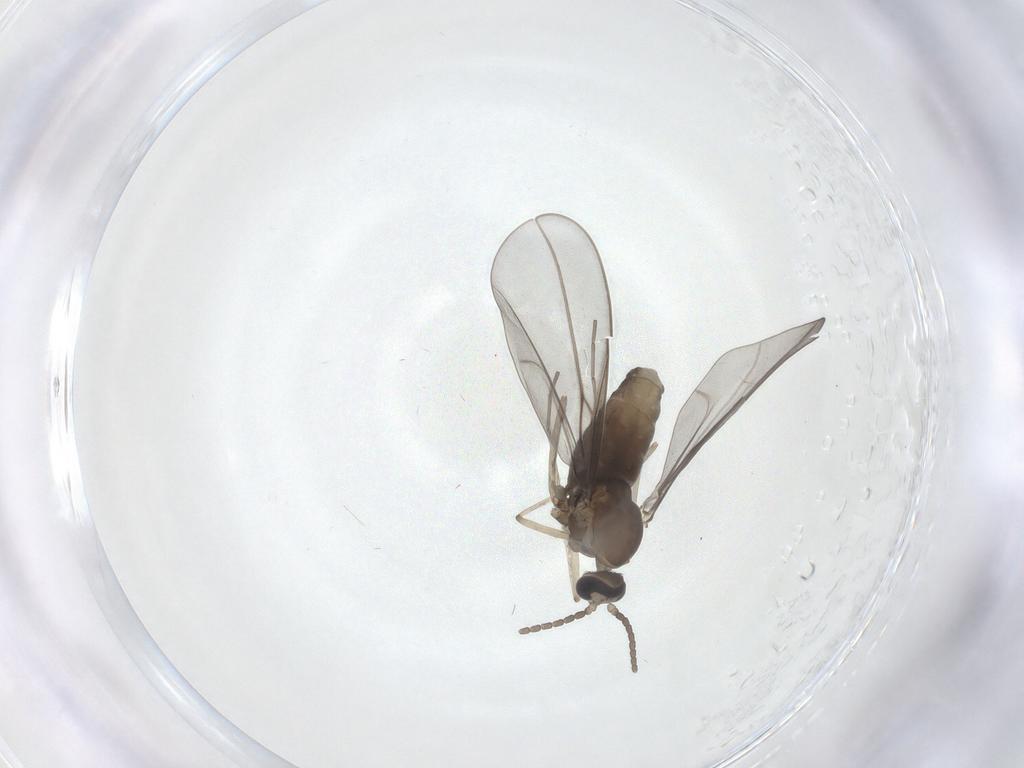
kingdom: Animalia
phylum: Arthropoda
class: Insecta
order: Diptera
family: Cecidomyiidae
